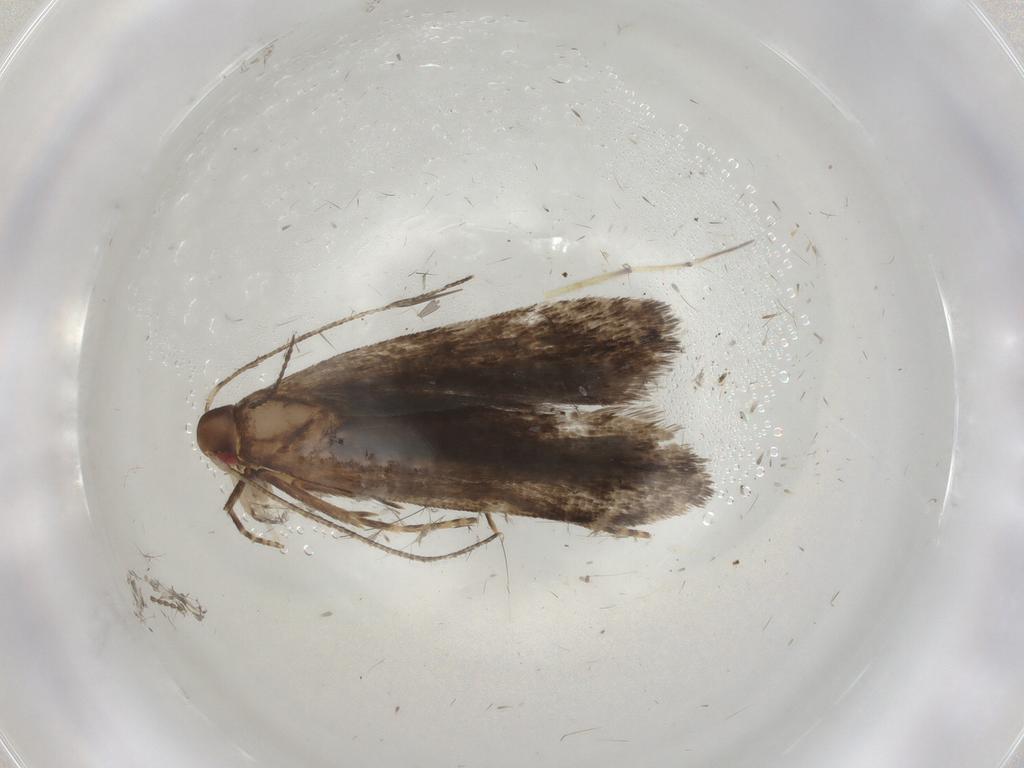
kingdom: Animalia
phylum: Arthropoda
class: Insecta
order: Lepidoptera
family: Gelechiidae
